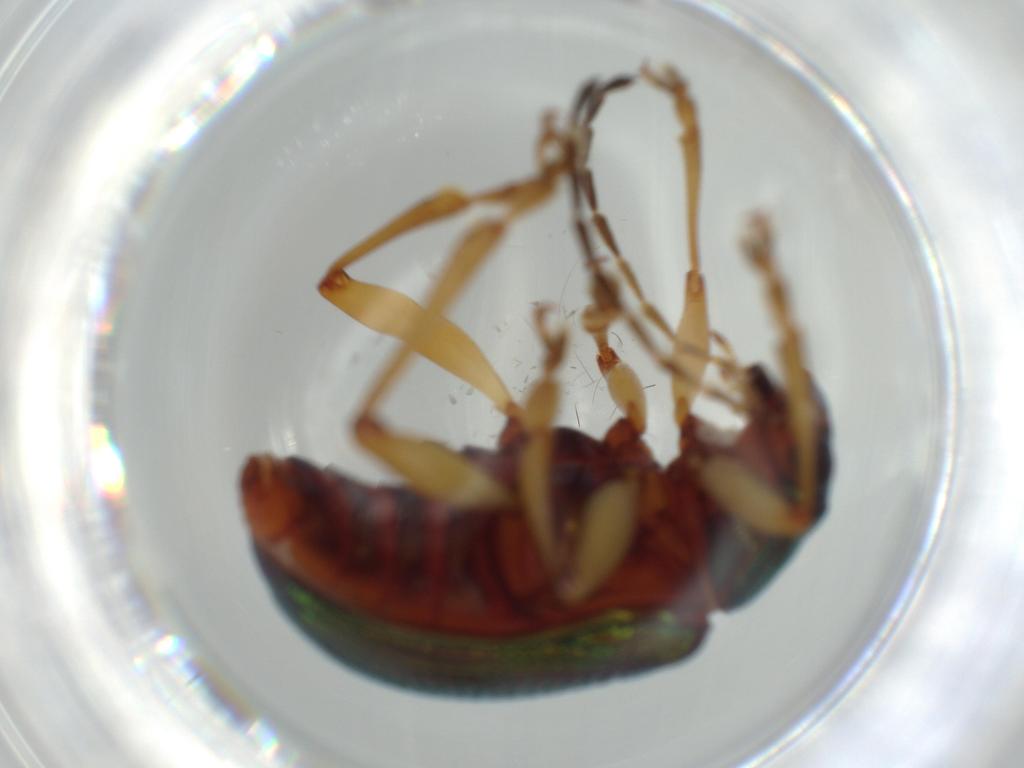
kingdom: Animalia
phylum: Arthropoda
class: Insecta
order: Coleoptera
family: Chrysomelidae
